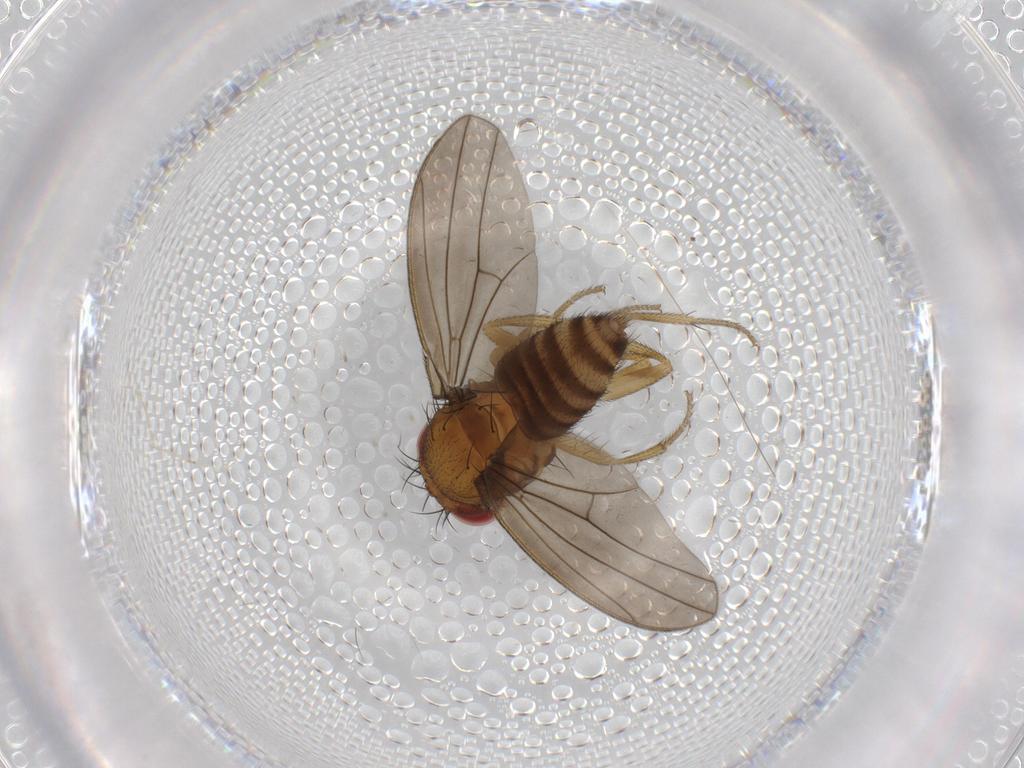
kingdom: Animalia
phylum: Arthropoda
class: Insecta
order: Diptera
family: Drosophilidae
